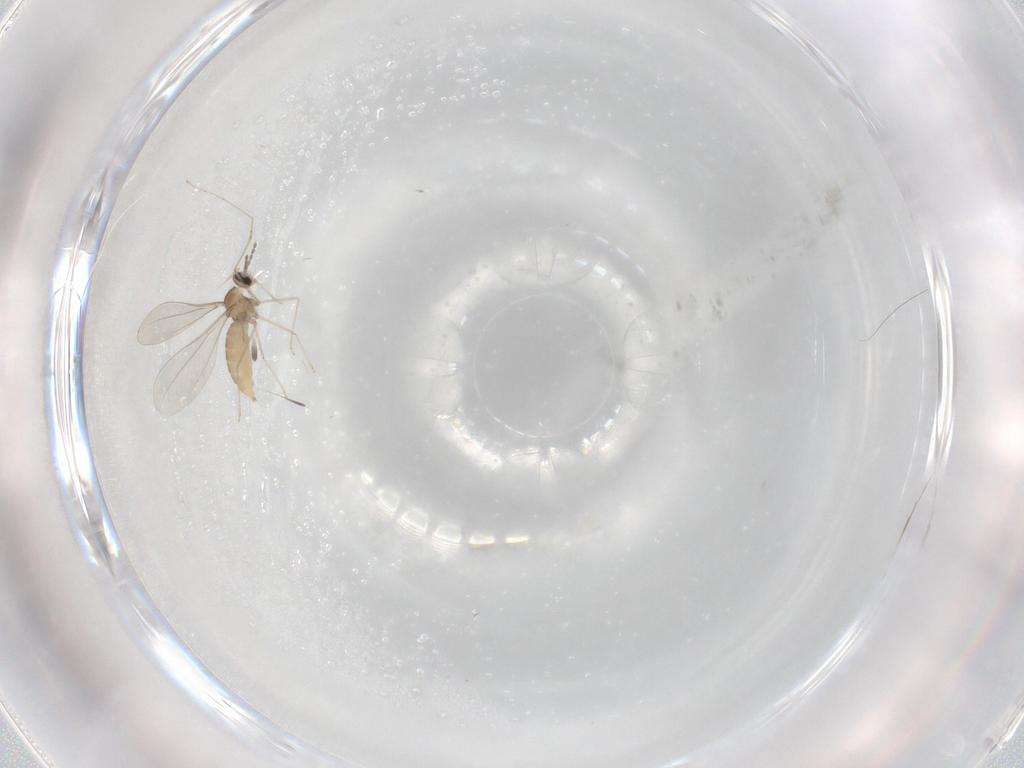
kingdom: Animalia
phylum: Arthropoda
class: Insecta
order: Diptera
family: Cecidomyiidae
